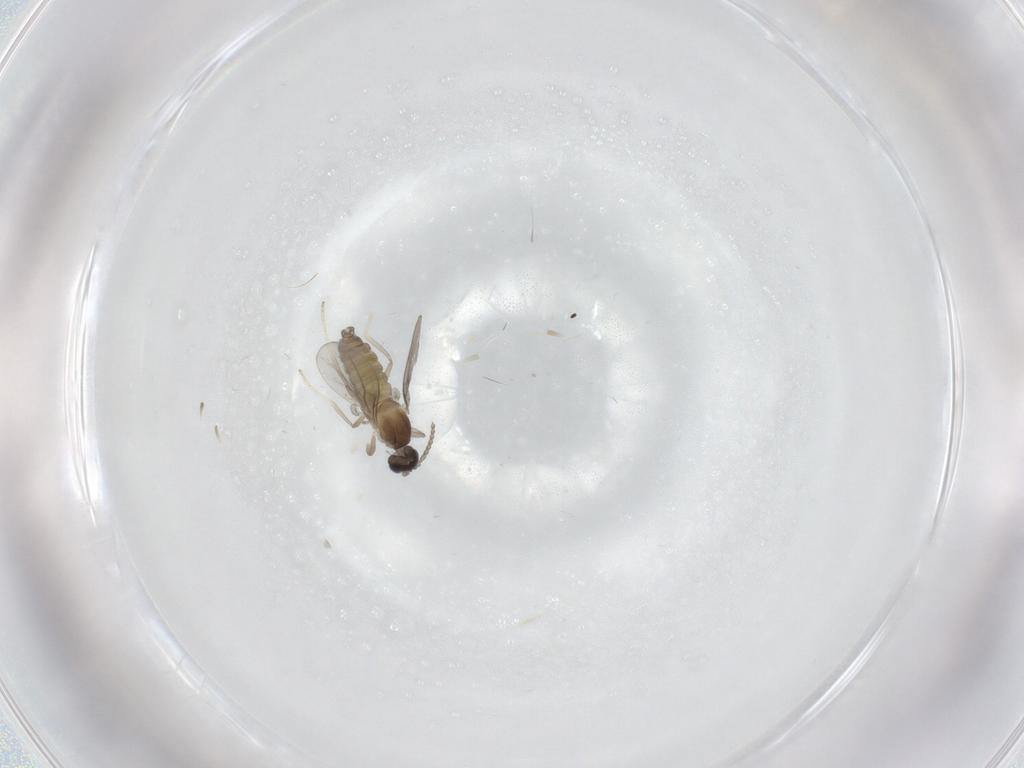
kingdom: Animalia
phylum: Arthropoda
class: Insecta
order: Diptera
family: Cecidomyiidae
